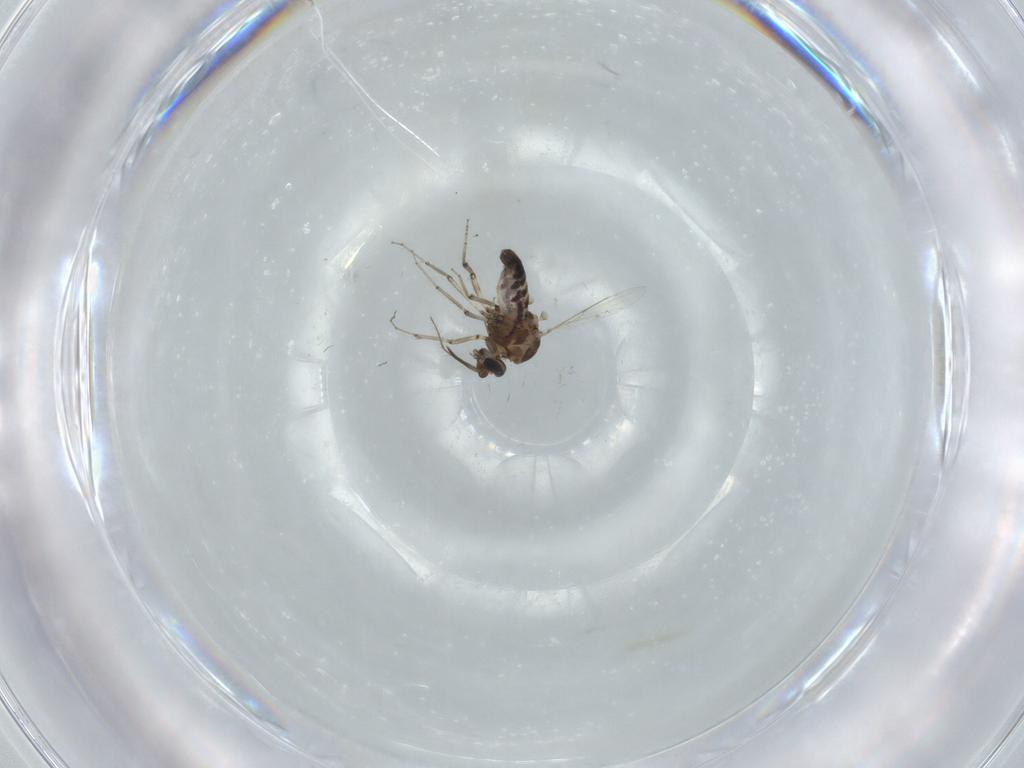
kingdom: Animalia
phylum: Arthropoda
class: Insecta
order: Diptera
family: Ceratopogonidae
